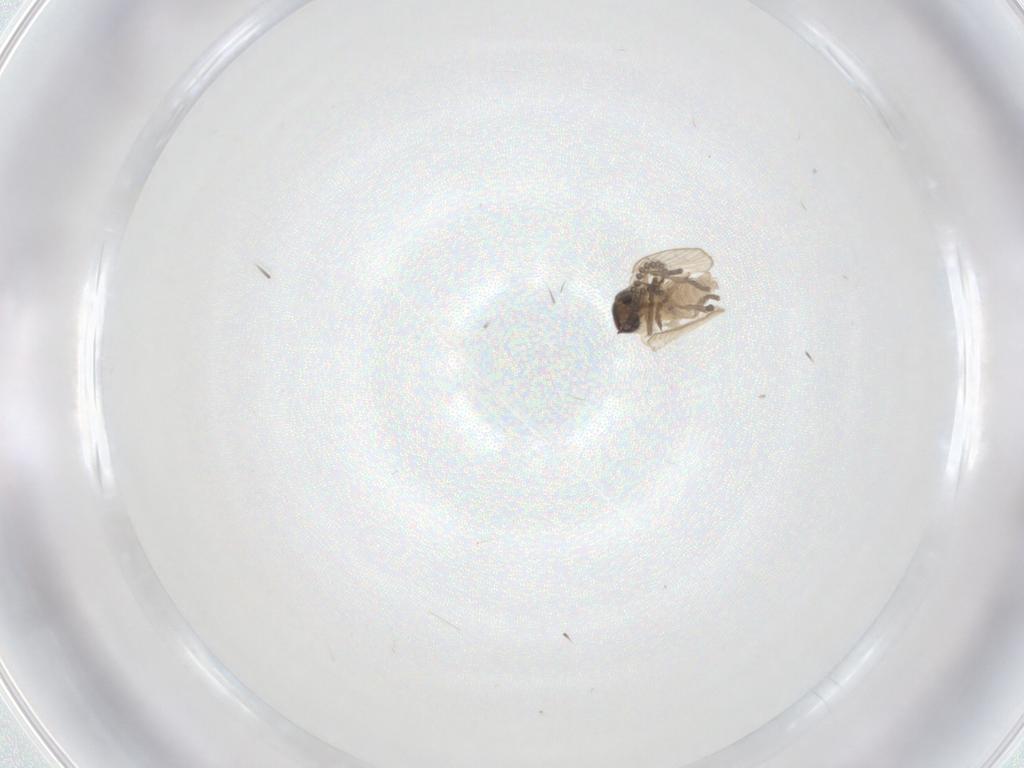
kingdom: Animalia
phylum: Arthropoda
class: Insecta
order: Diptera
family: Psychodidae
